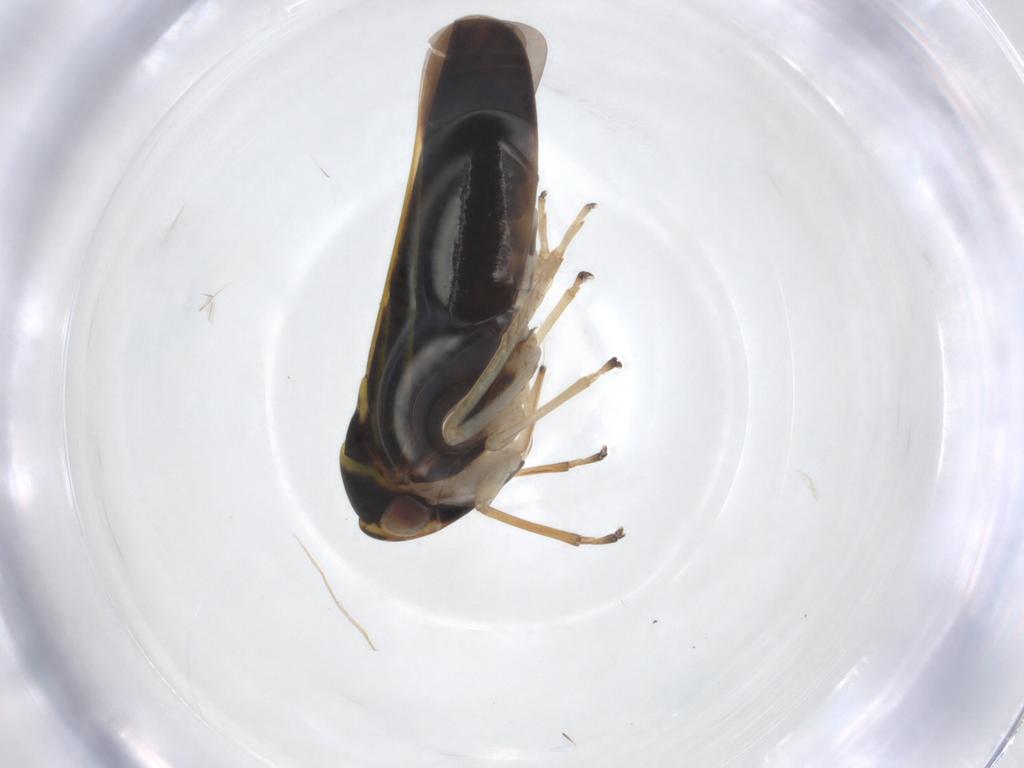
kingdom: Animalia
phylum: Arthropoda
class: Insecta
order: Hemiptera
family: Cicadellidae
